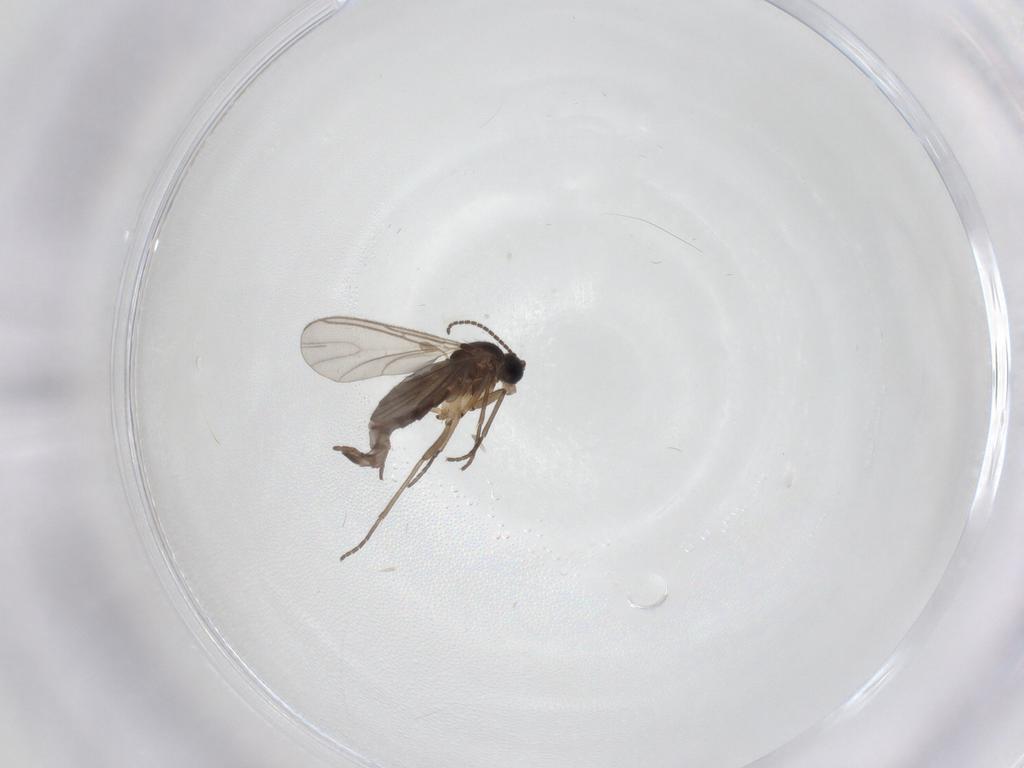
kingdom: Animalia
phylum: Arthropoda
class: Insecta
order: Diptera
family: Sciaridae
